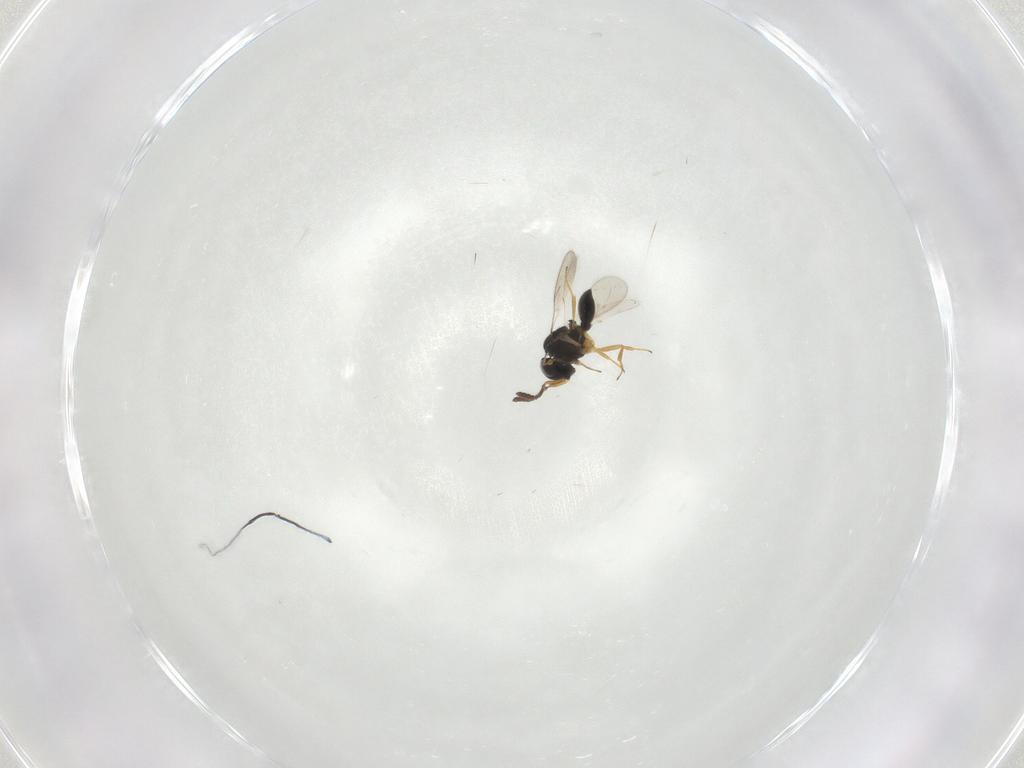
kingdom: Animalia
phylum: Arthropoda
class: Insecta
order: Hymenoptera
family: Scelionidae
